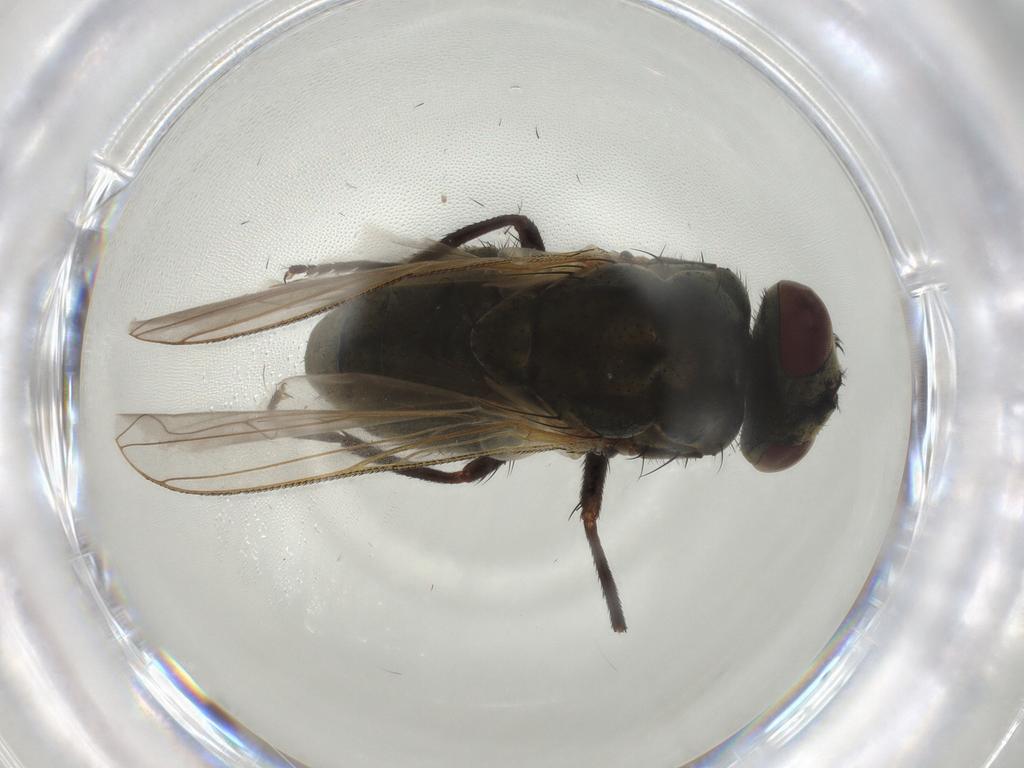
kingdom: Animalia
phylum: Arthropoda
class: Insecta
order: Diptera
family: Muscidae
